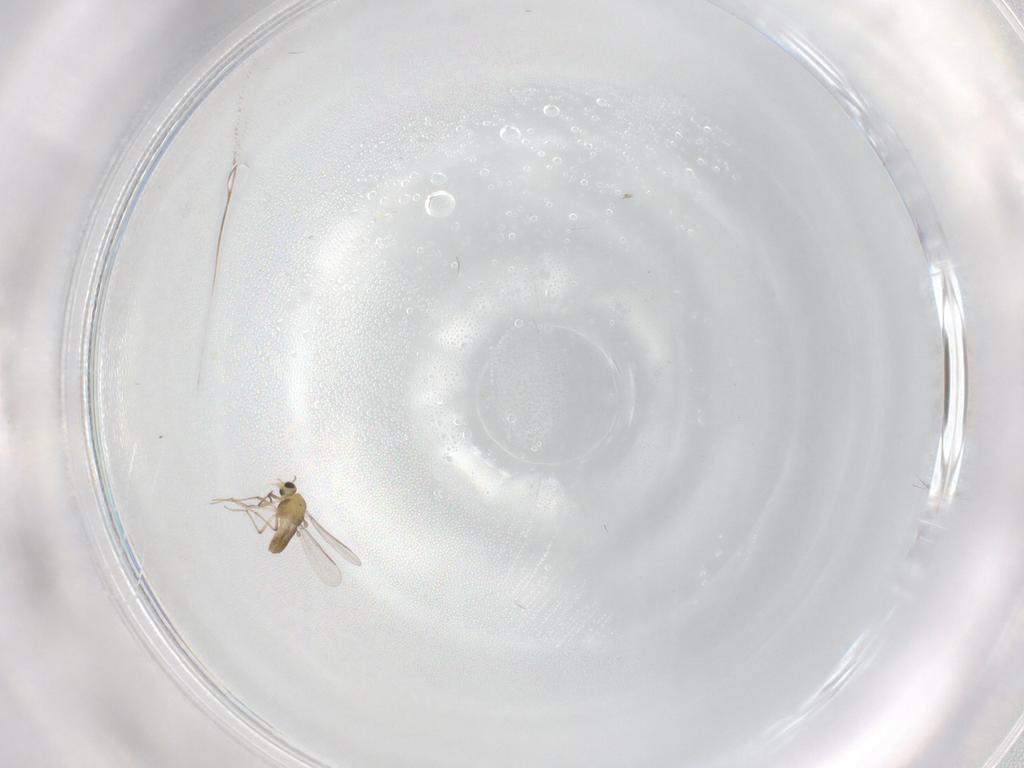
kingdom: Animalia
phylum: Arthropoda
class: Insecta
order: Diptera
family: Chironomidae
